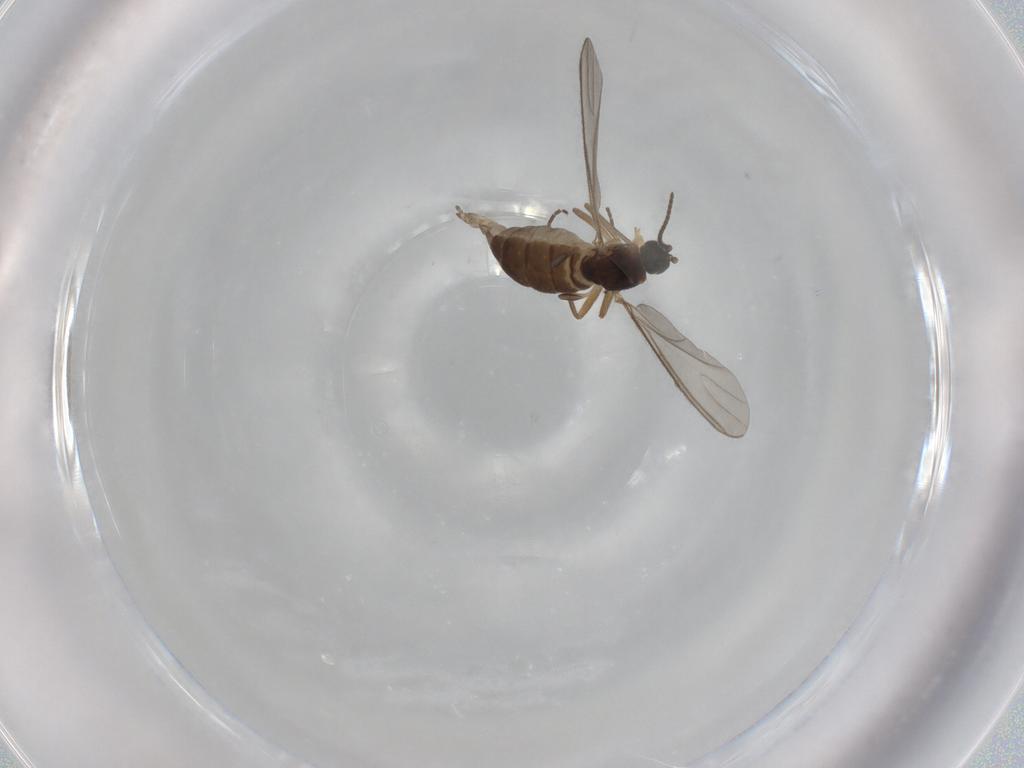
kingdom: Animalia
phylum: Arthropoda
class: Insecta
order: Diptera
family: Sciaridae
